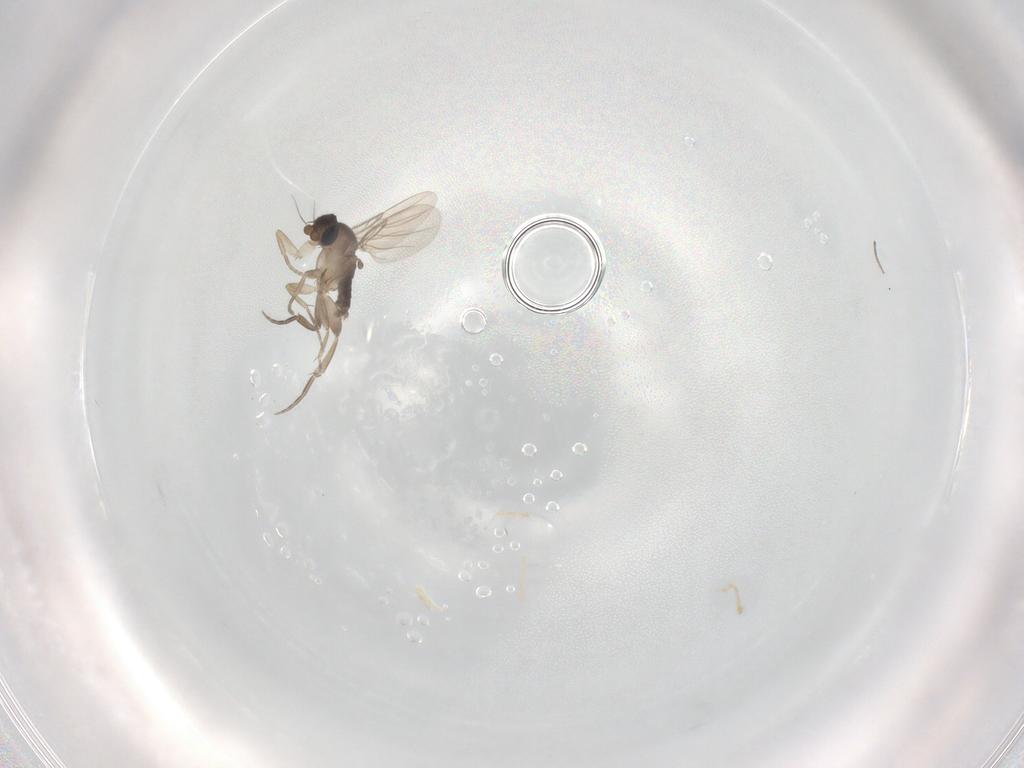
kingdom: Animalia
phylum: Arthropoda
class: Insecta
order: Diptera
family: Phoridae
